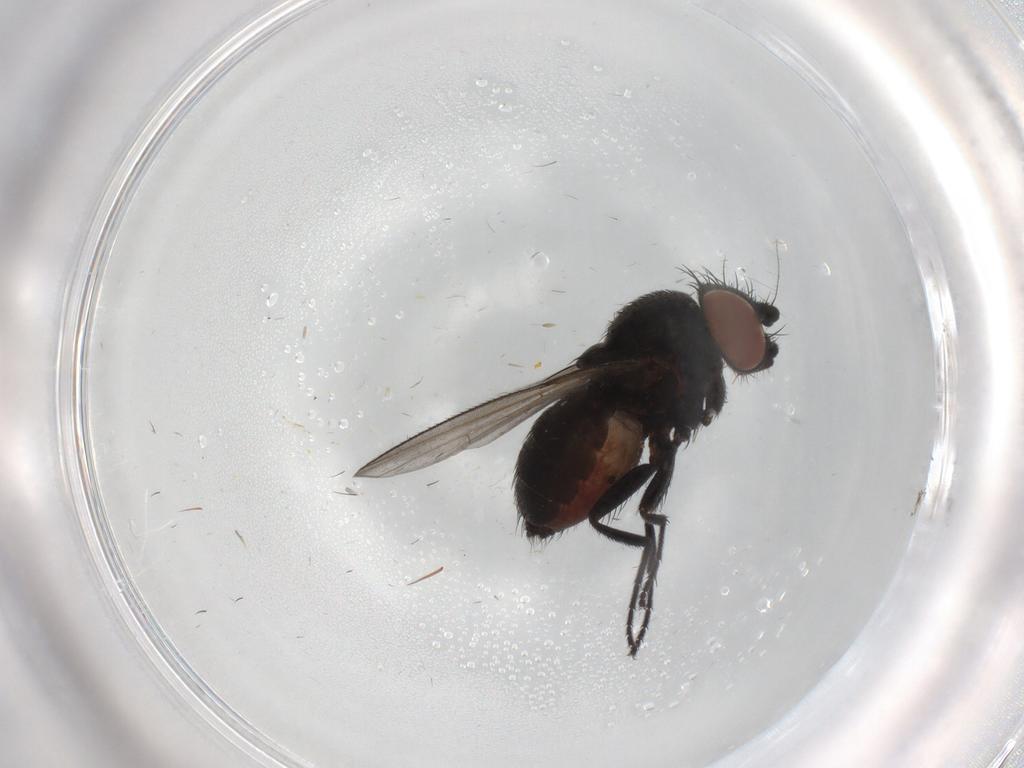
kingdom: Animalia
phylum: Arthropoda
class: Insecta
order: Diptera
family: Milichiidae
